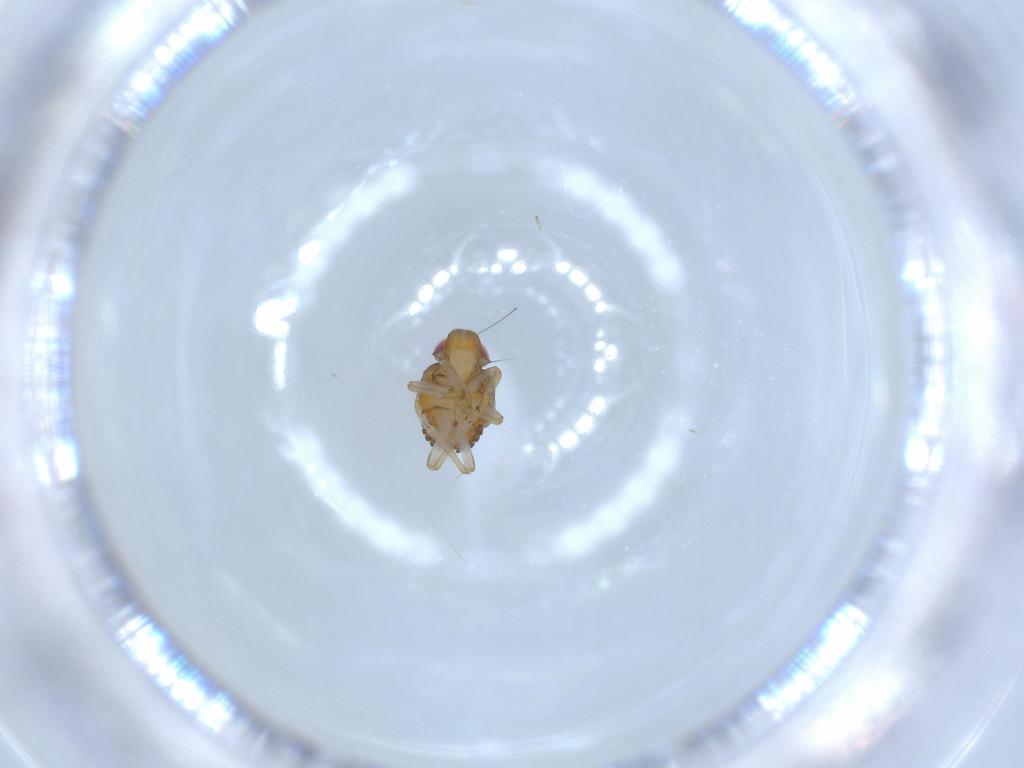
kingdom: Animalia
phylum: Arthropoda
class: Insecta
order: Hemiptera
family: Issidae
